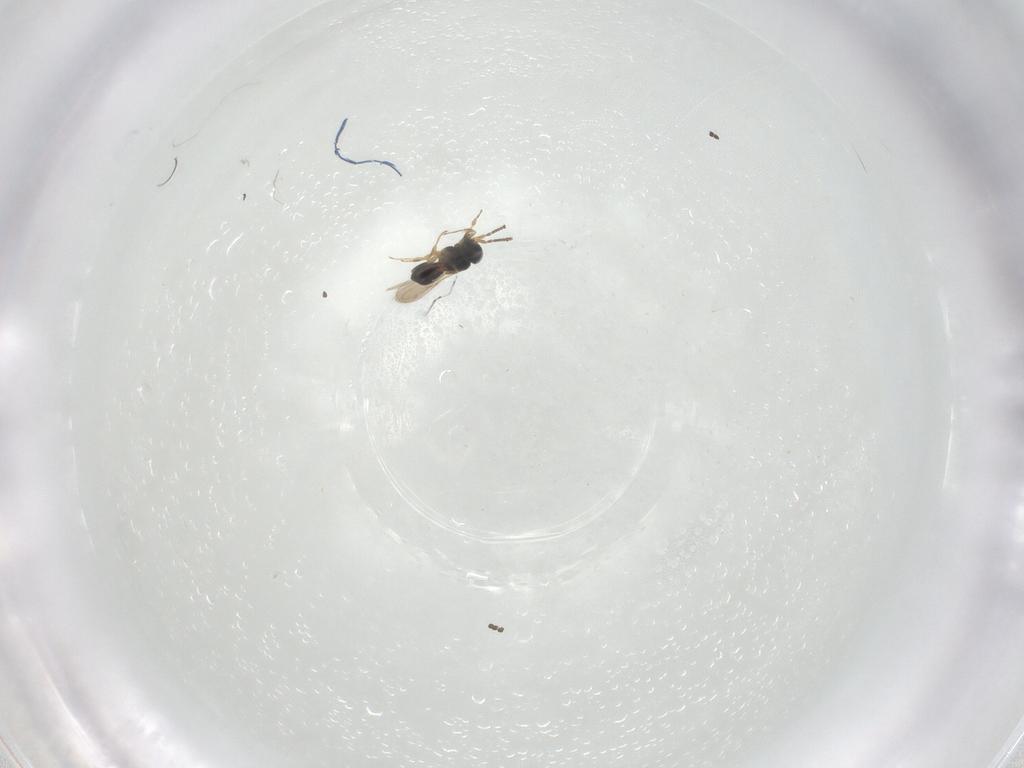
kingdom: Animalia
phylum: Arthropoda
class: Insecta
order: Hymenoptera
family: Scelionidae
